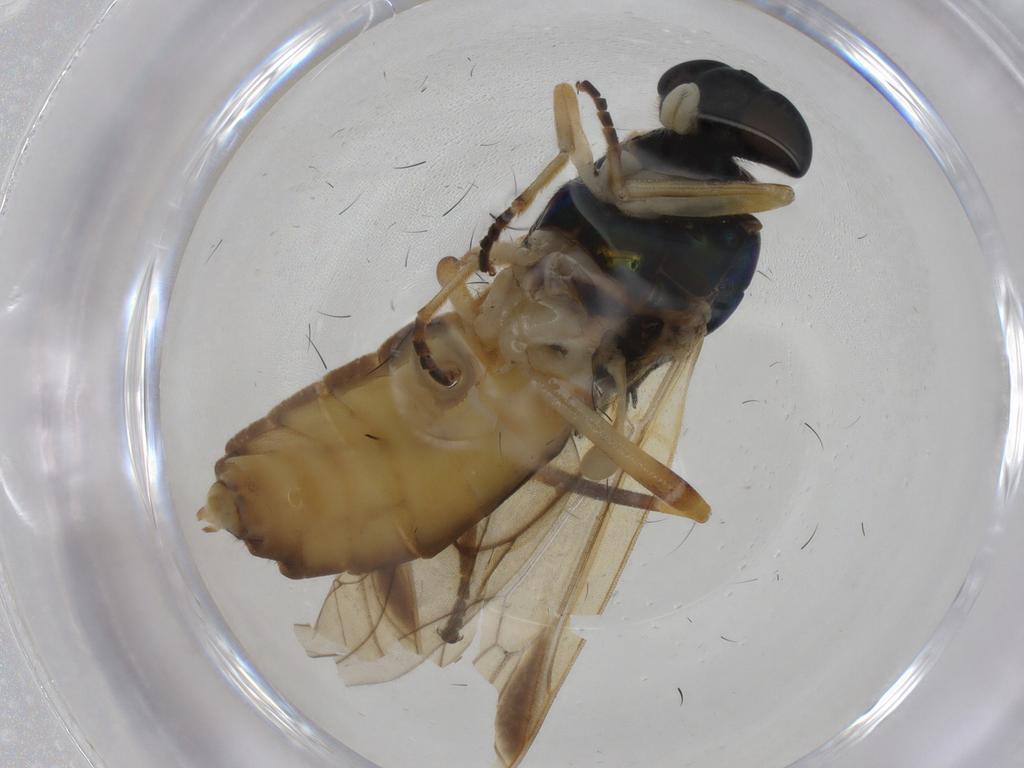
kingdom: Animalia
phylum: Arthropoda
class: Insecta
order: Diptera
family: Stratiomyidae
